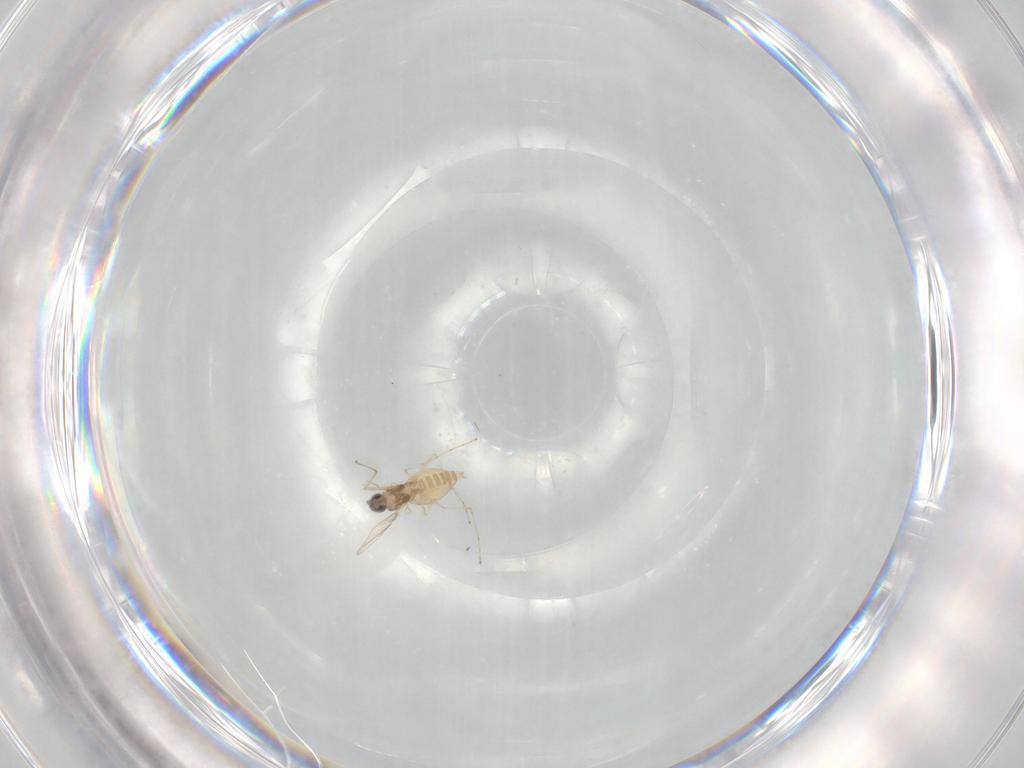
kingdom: Animalia
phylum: Arthropoda
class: Insecta
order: Diptera
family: Cecidomyiidae
